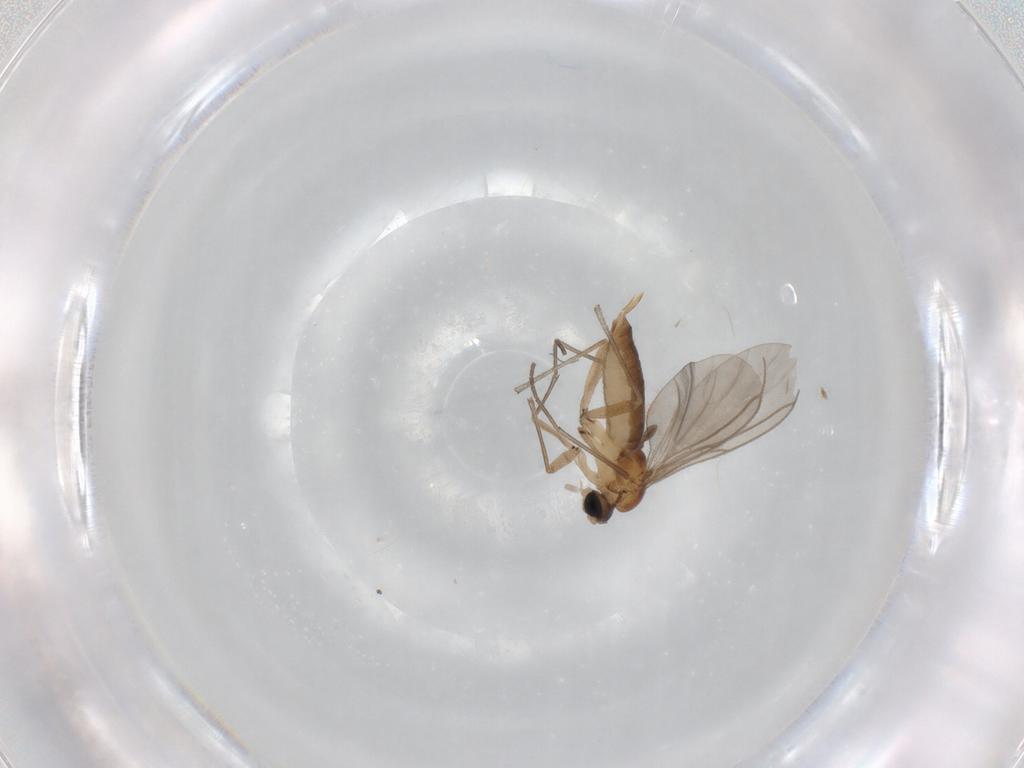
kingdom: Animalia
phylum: Arthropoda
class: Insecta
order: Diptera
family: Sciaridae
